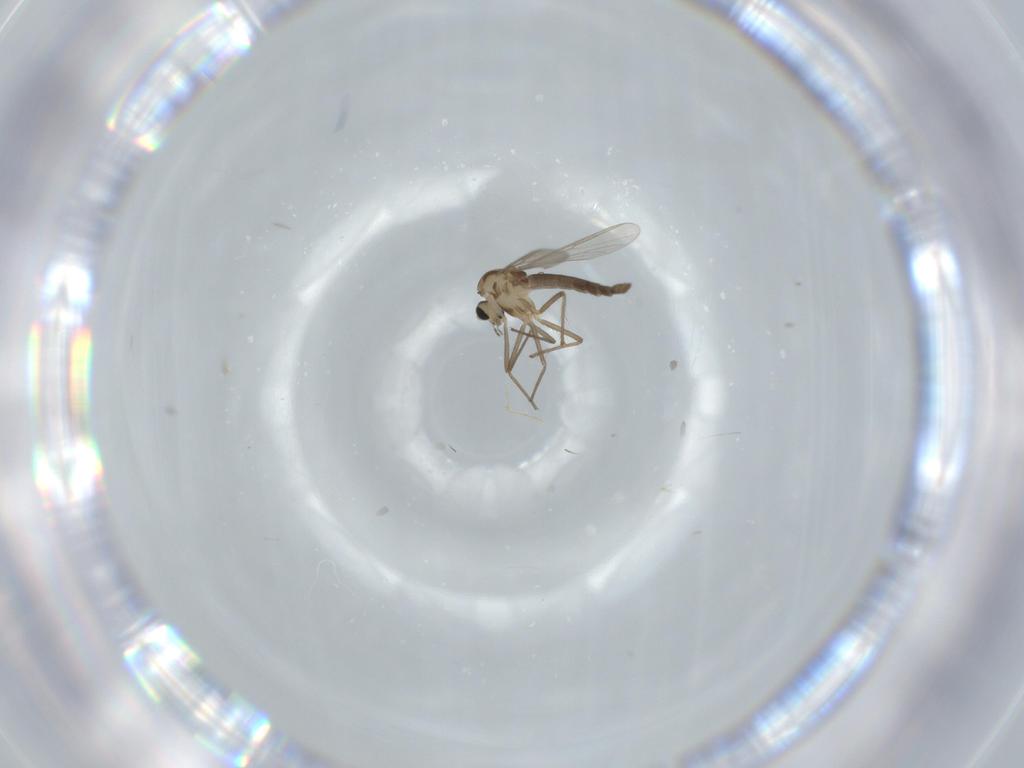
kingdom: Animalia
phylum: Arthropoda
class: Insecta
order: Diptera
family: Chironomidae
